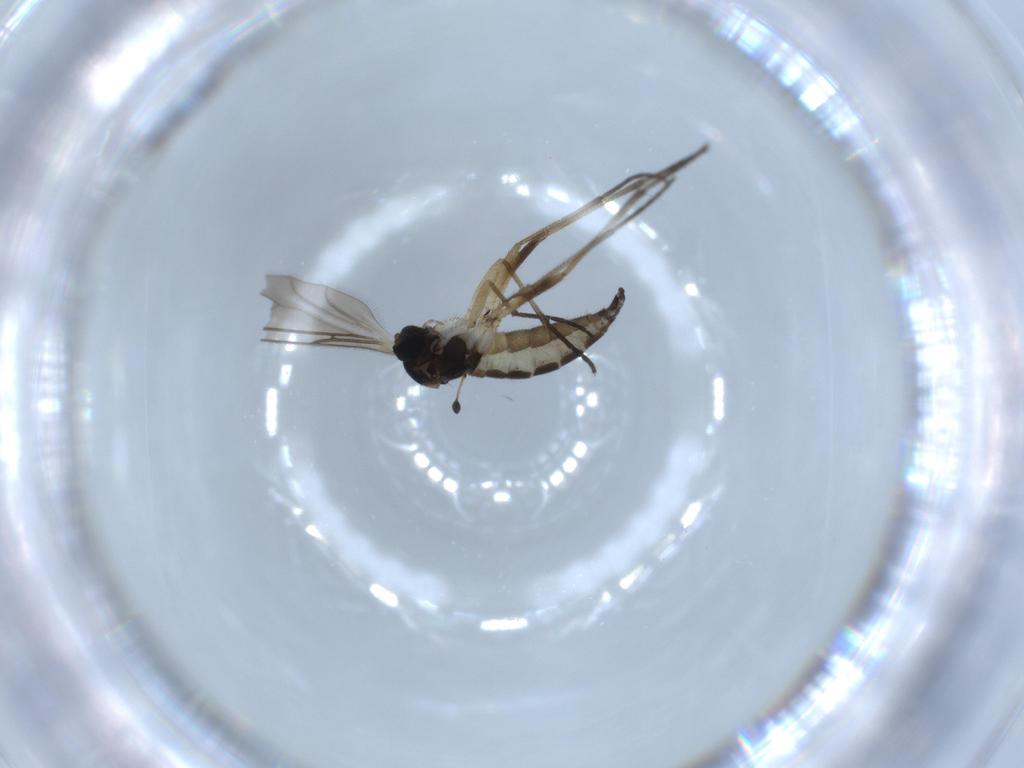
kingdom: Animalia
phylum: Arthropoda
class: Insecta
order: Diptera
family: Sciaridae
